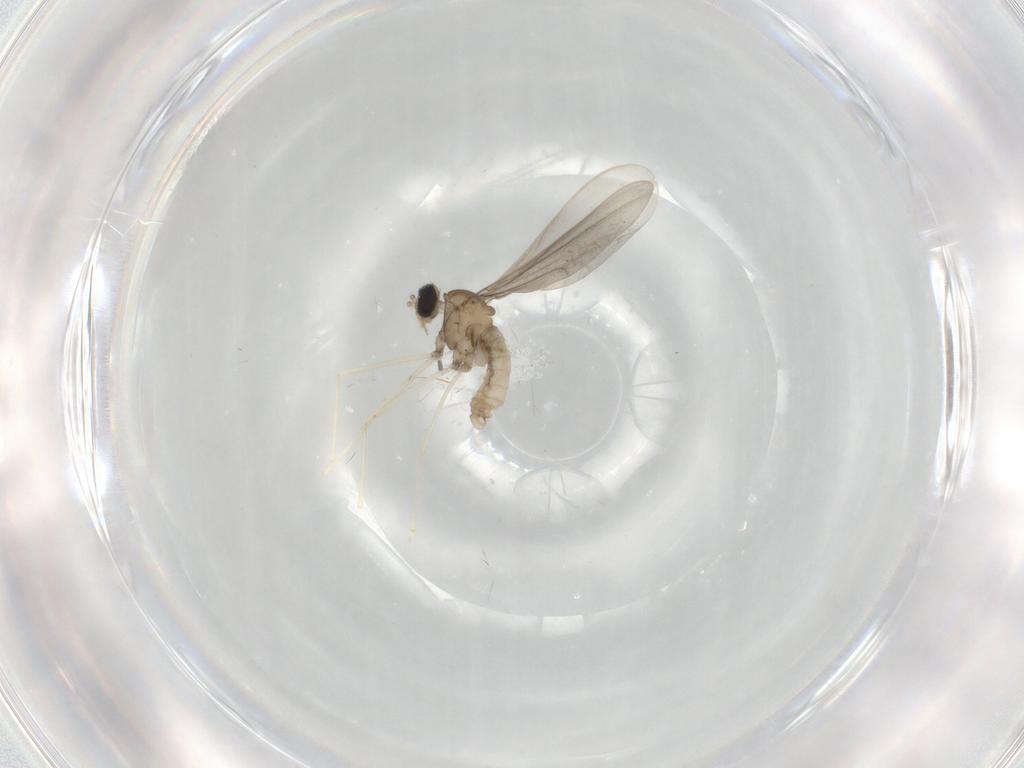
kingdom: Animalia
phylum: Arthropoda
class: Insecta
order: Diptera
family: Cecidomyiidae
